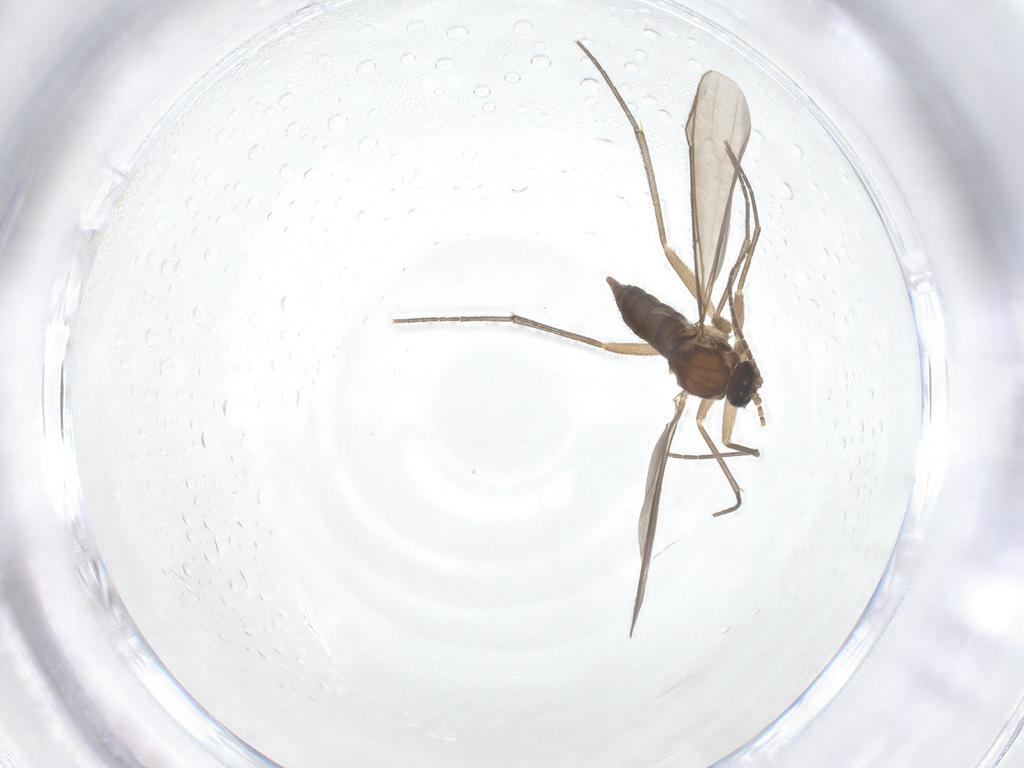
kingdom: Animalia
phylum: Arthropoda
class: Insecta
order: Diptera
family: Sciaridae
